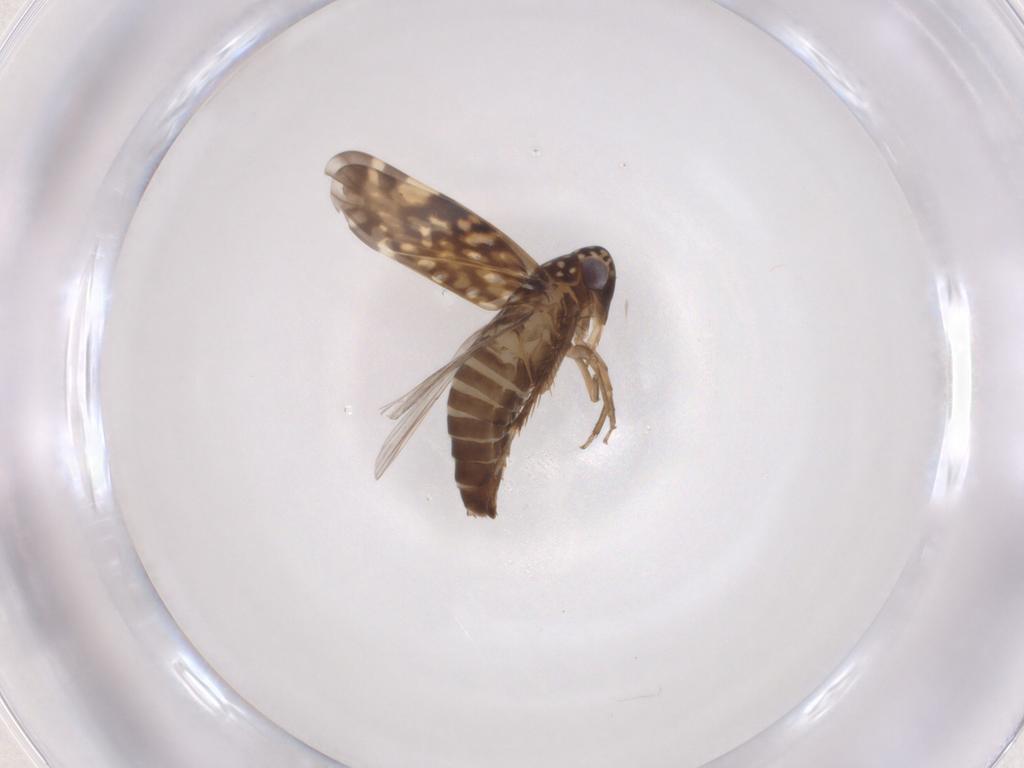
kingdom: Animalia
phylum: Arthropoda
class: Insecta
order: Hemiptera
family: Cicadellidae
